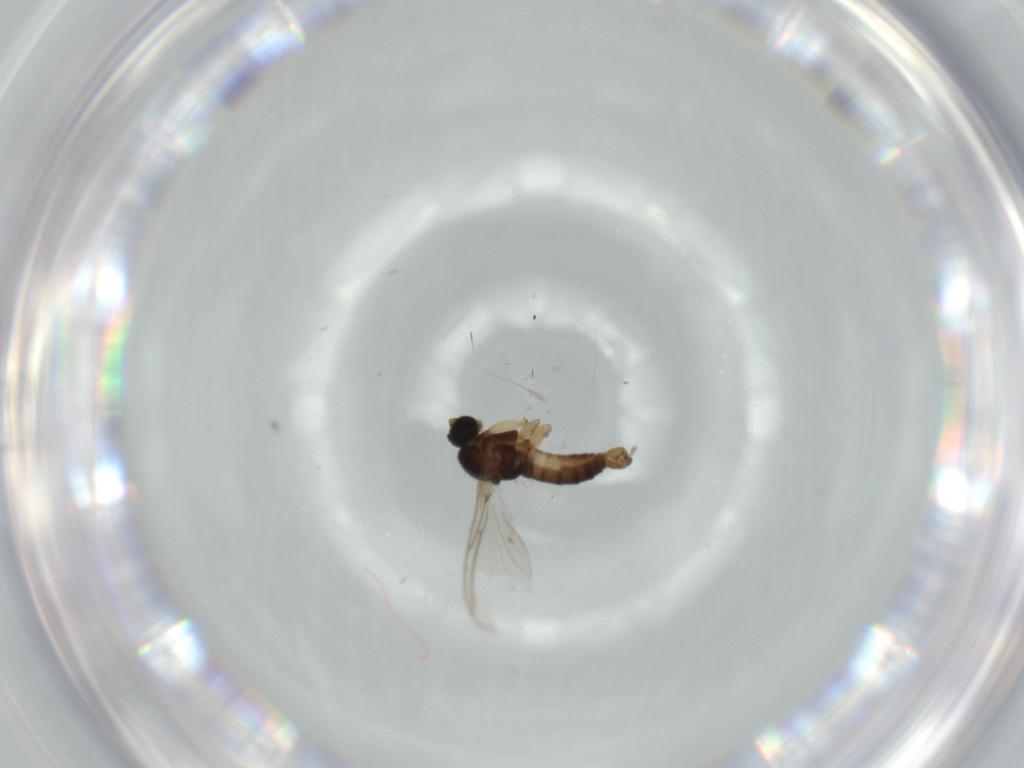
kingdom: Animalia
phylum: Arthropoda
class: Insecta
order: Diptera
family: Sciaridae
